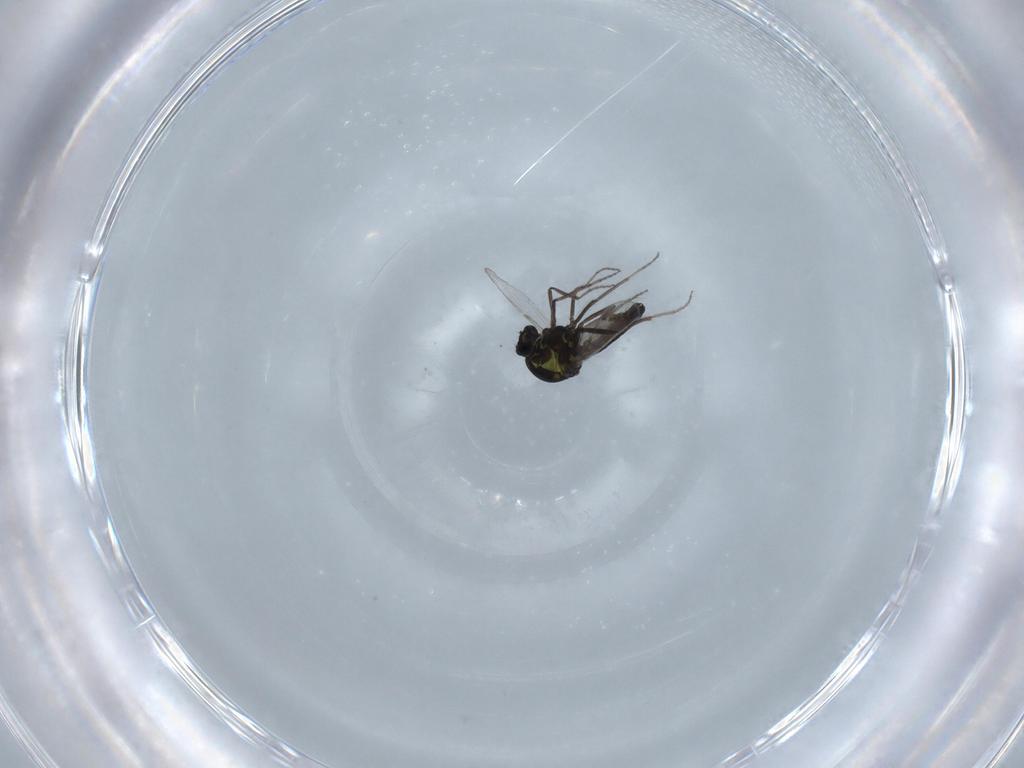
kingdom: Animalia
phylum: Arthropoda
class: Insecta
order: Diptera
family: Ceratopogonidae
